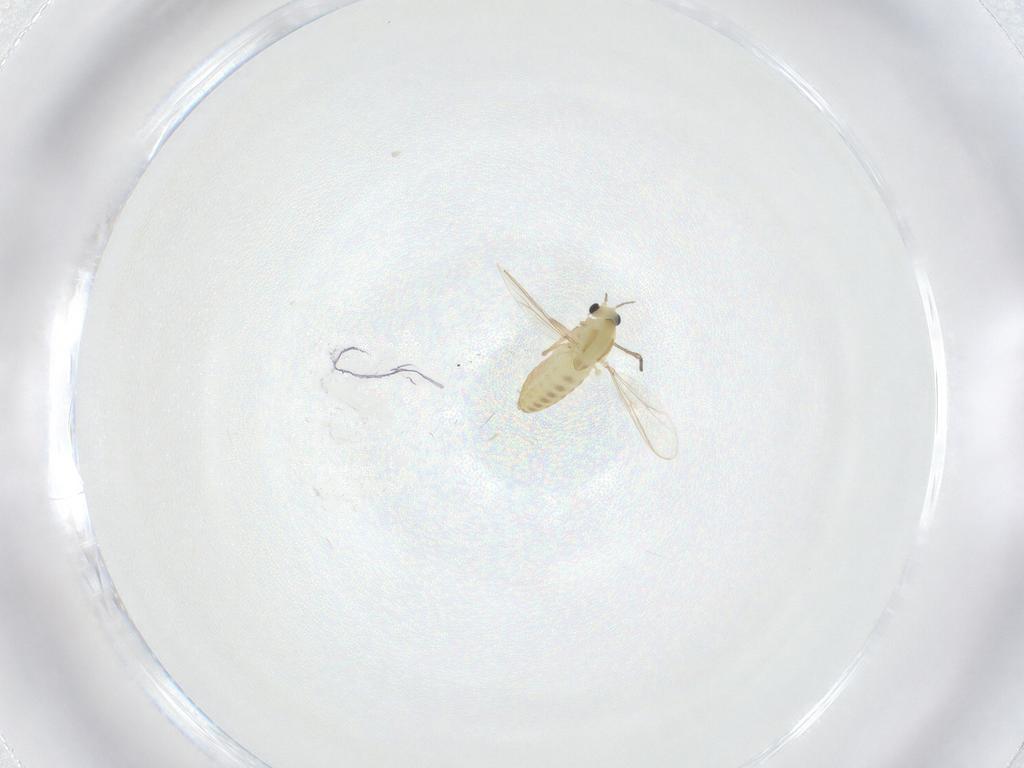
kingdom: Animalia
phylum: Arthropoda
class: Insecta
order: Diptera
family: Chironomidae
